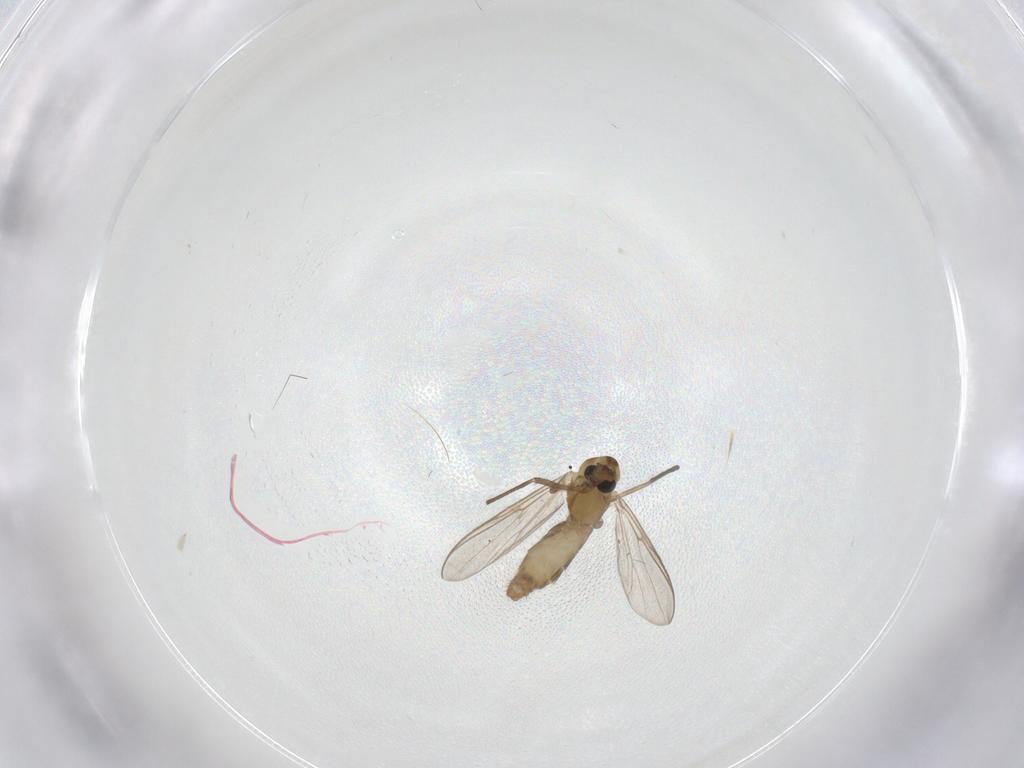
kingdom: Animalia
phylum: Arthropoda
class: Insecta
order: Diptera
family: Chironomidae
